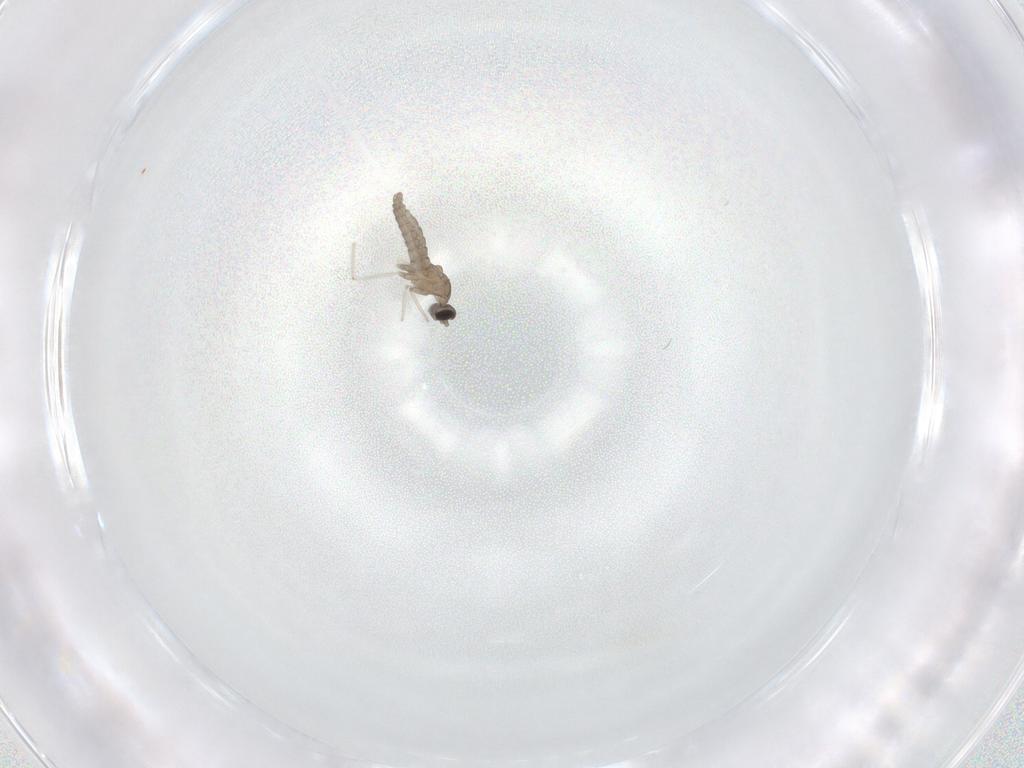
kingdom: Animalia
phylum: Arthropoda
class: Insecta
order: Diptera
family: Cecidomyiidae
